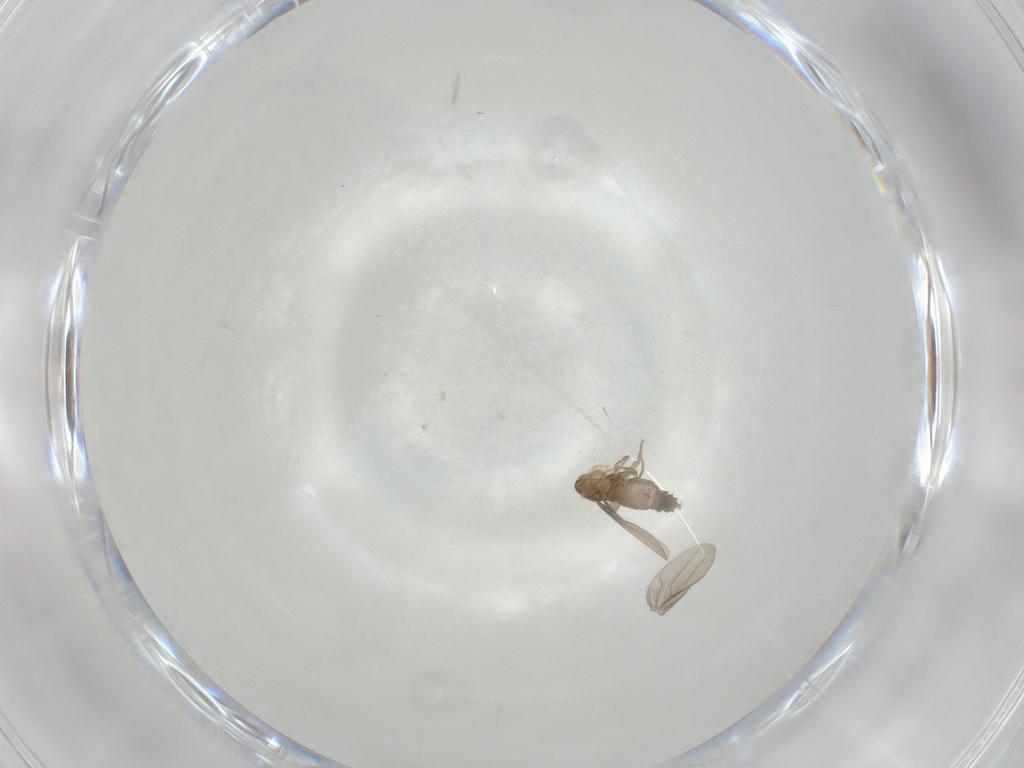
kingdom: Animalia
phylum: Arthropoda
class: Insecta
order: Diptera
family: Phoridae
